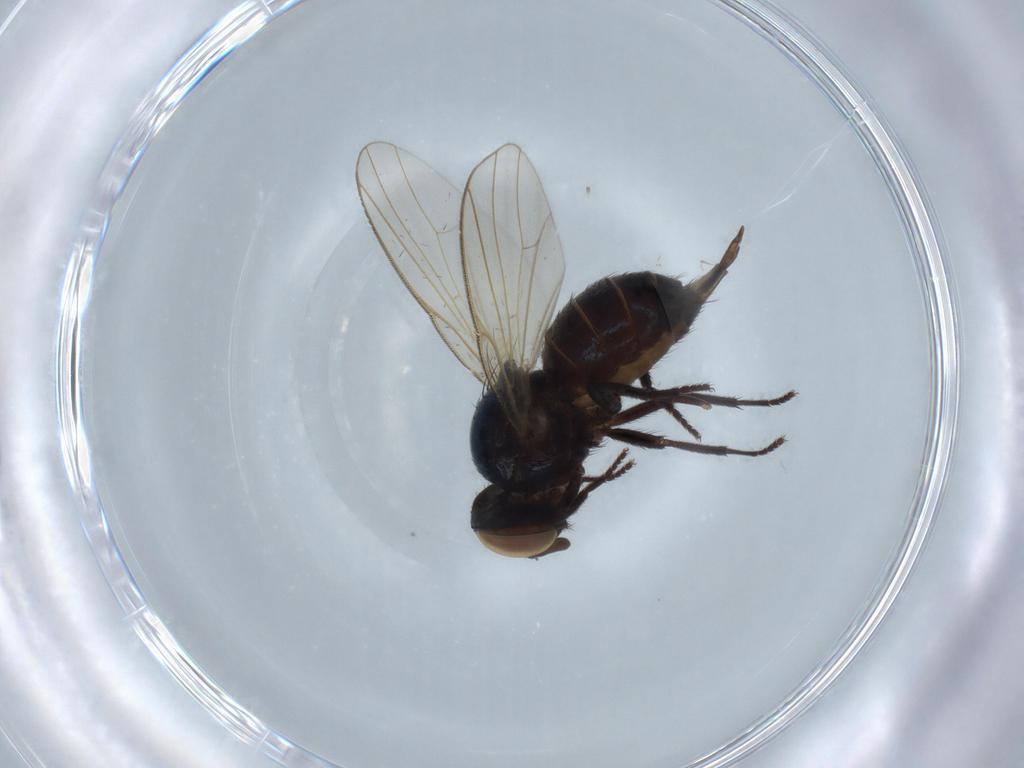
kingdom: Animalia
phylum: Arthropoda
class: Insecta
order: Diptera
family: Lonchaeidae
